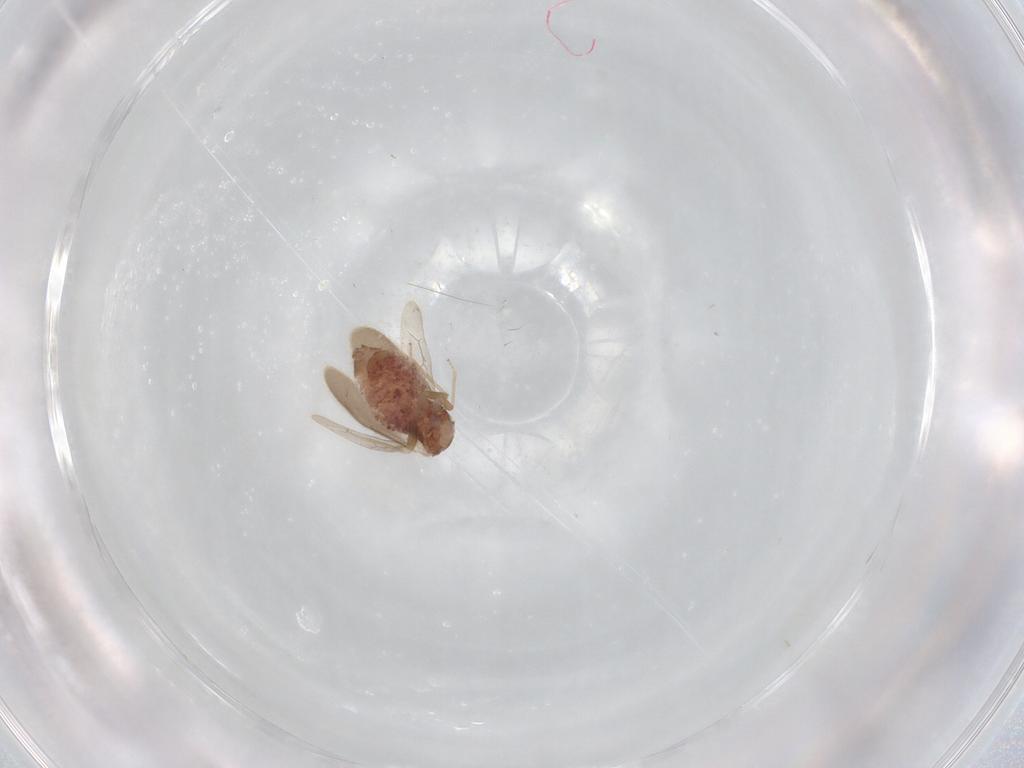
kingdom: Animalia
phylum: Arthropoda
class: Insecta
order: Psocodea
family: Archipsocidae
